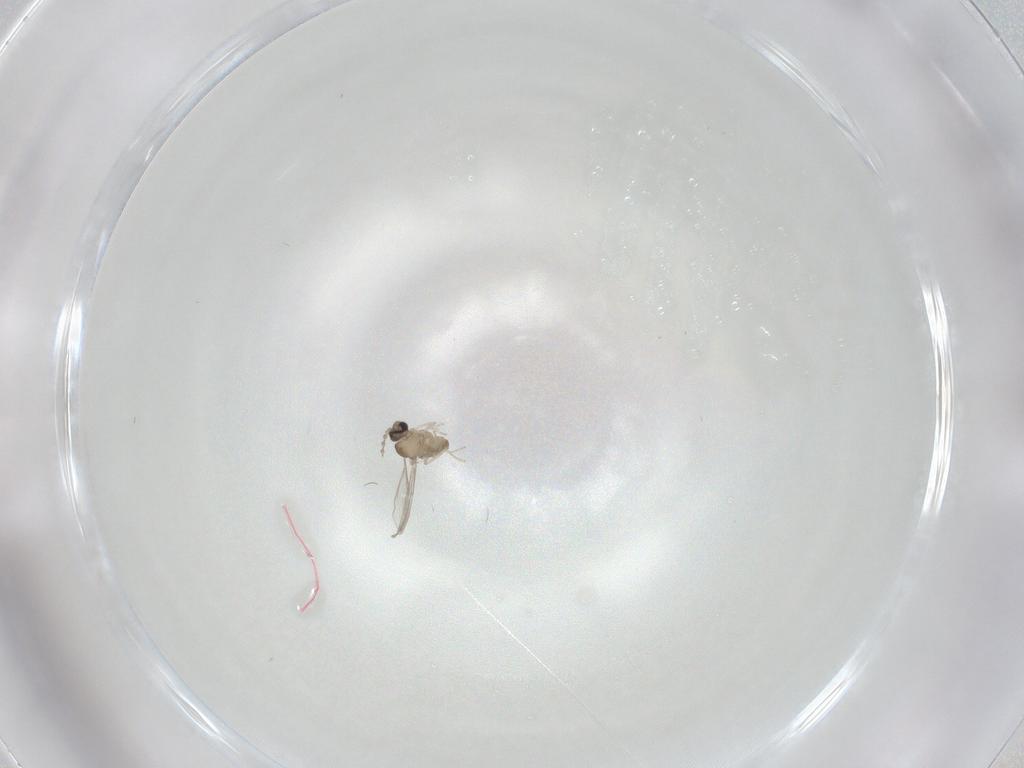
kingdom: Animalia
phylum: Arthropoda
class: Insecta
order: Diptera
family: Cecidomyiidae
